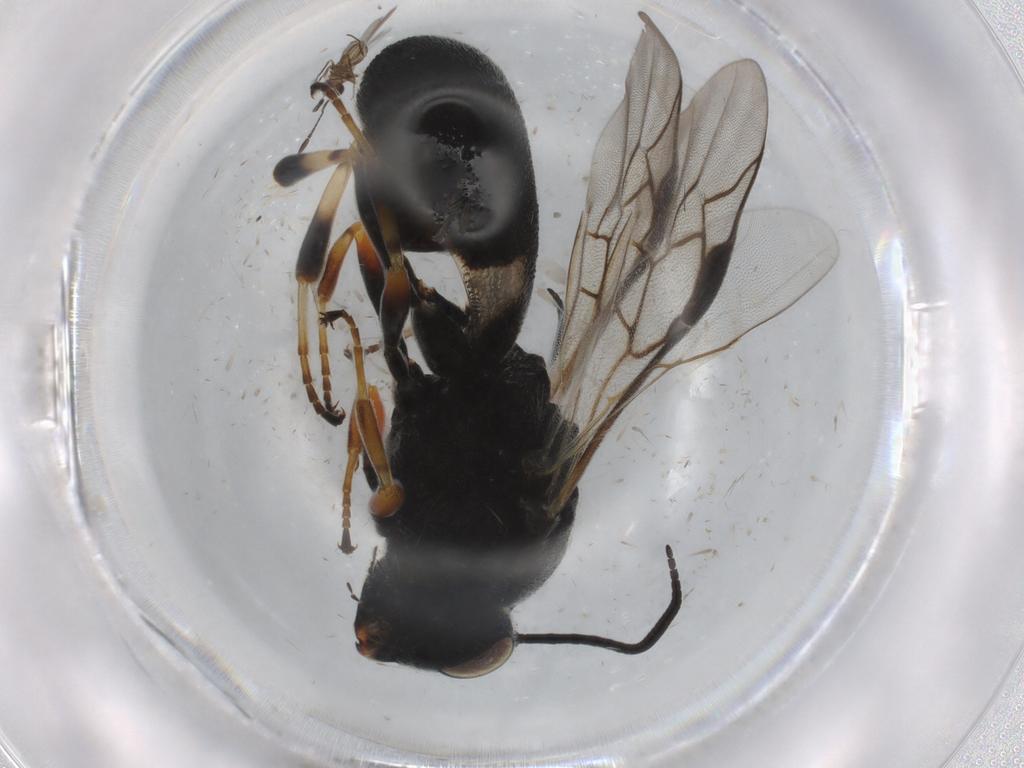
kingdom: Animalia
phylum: Arthropoda
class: Insecta
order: Hymenoptera
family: Braconidae
